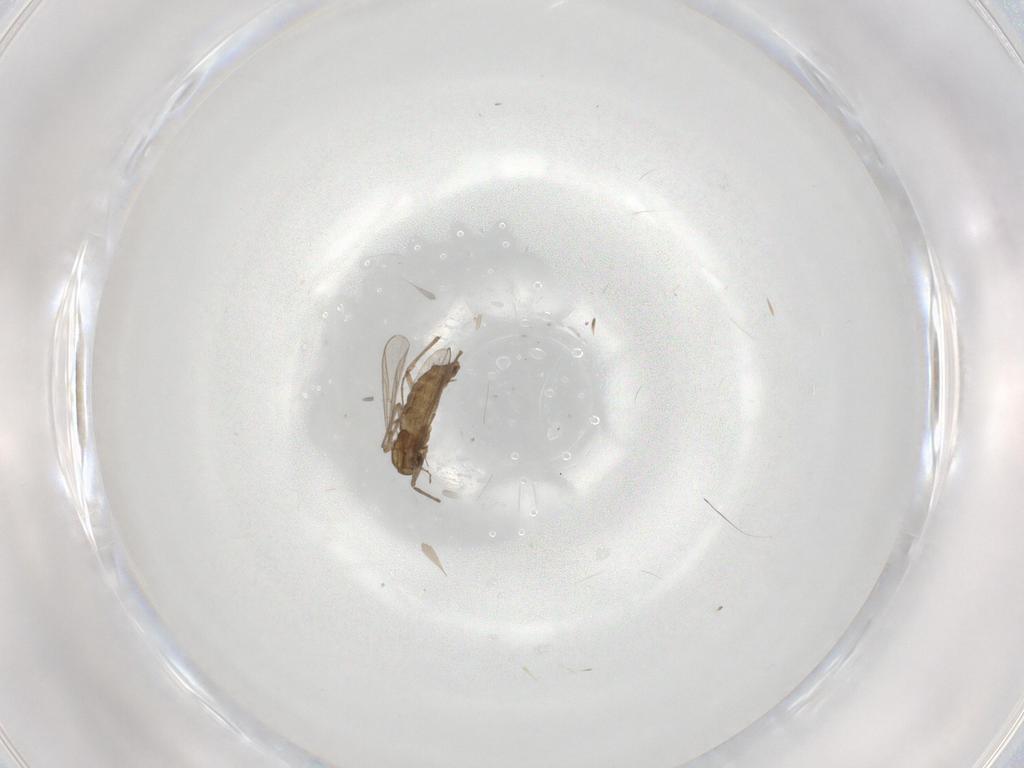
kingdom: Animalia
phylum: Arthropoda
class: Insecta
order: Diptera
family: Chironomidae
